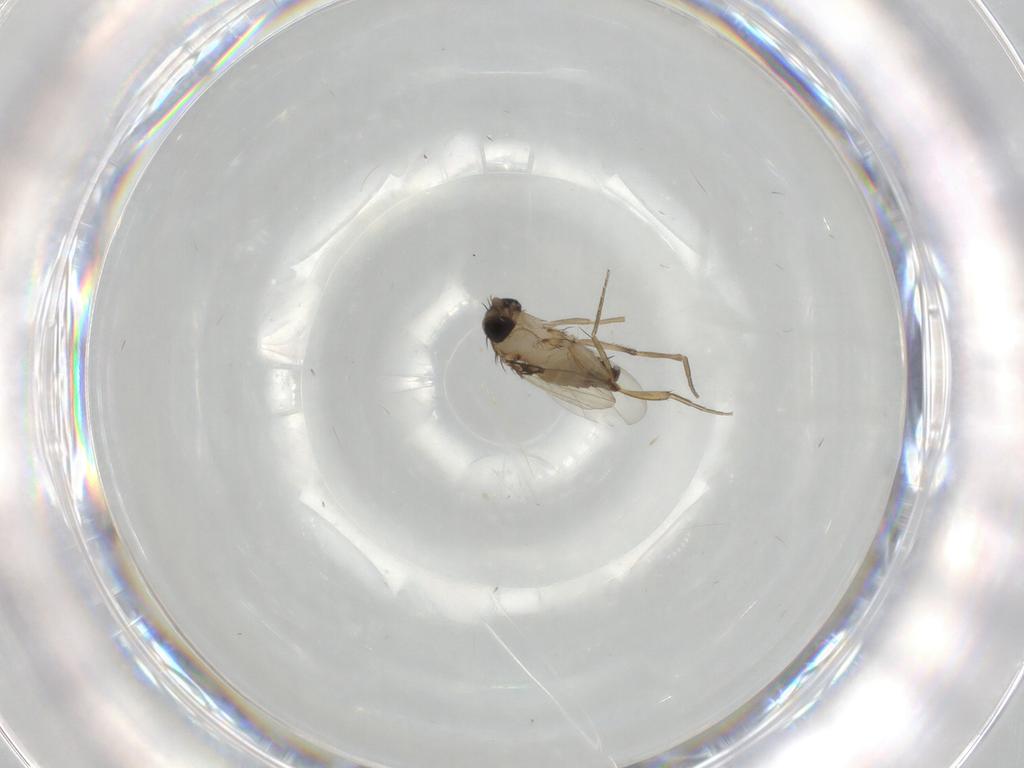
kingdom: Animalia
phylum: Arthropoda
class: Insecta
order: Diptera
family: Phoridae
